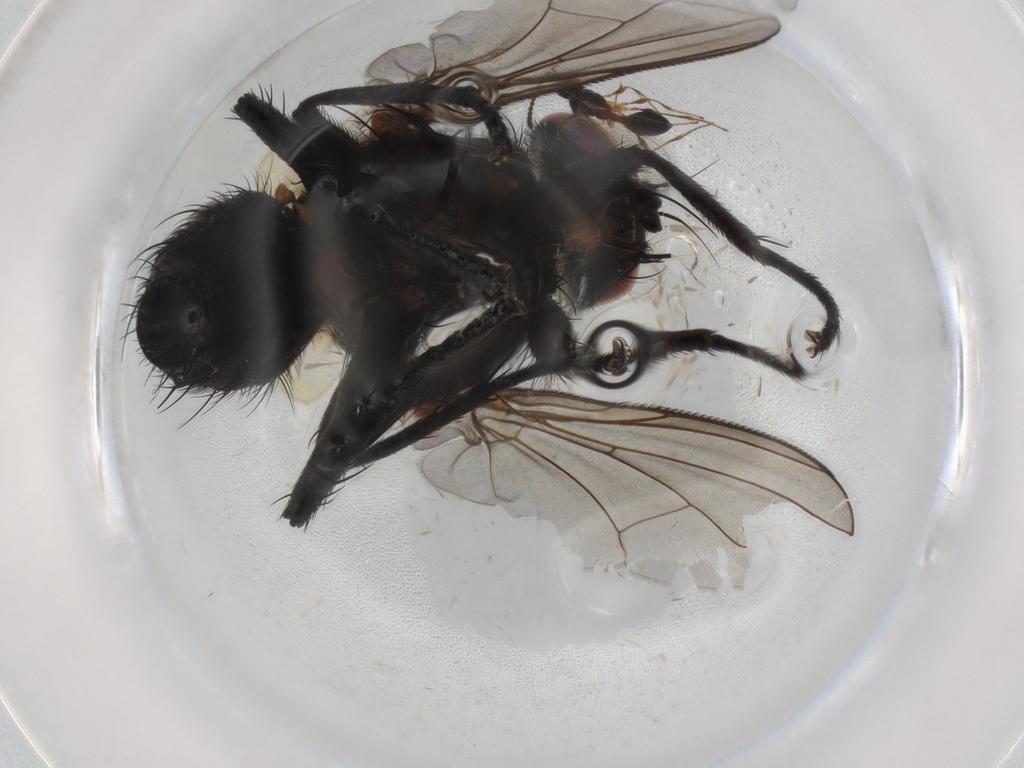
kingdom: Animalia
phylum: Arthropoda
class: Insecta
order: Diptera
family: Tachinidae
